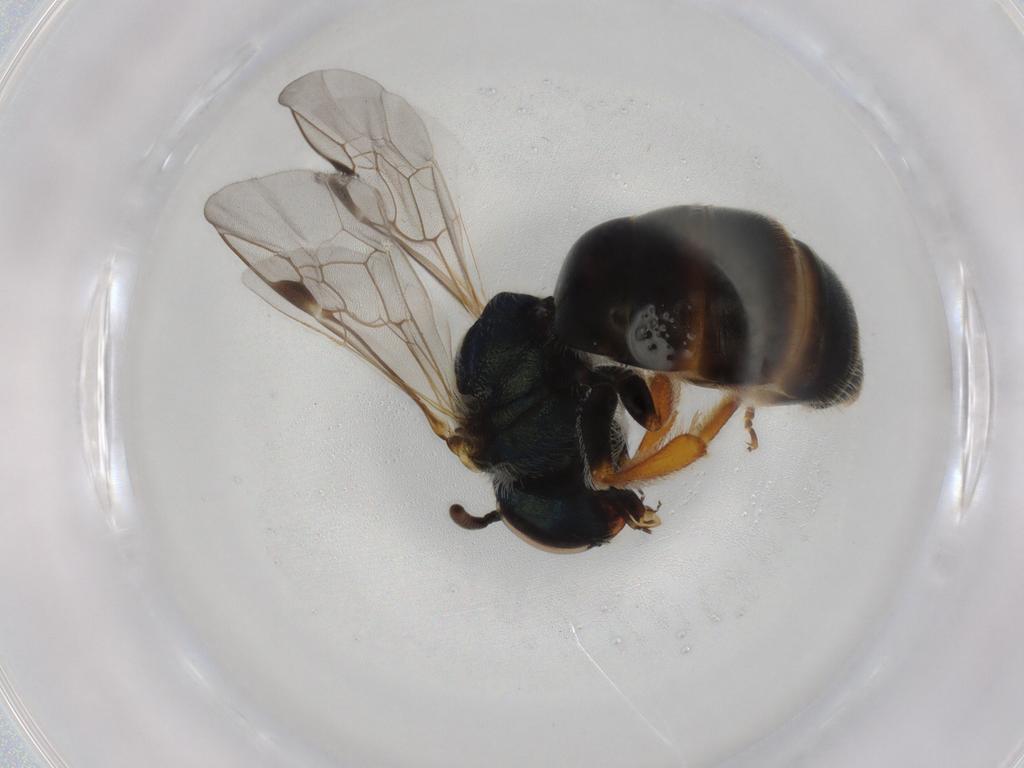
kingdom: Animalia
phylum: Arthropoda
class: Insecta
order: Hymenoptera
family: Halictidae
